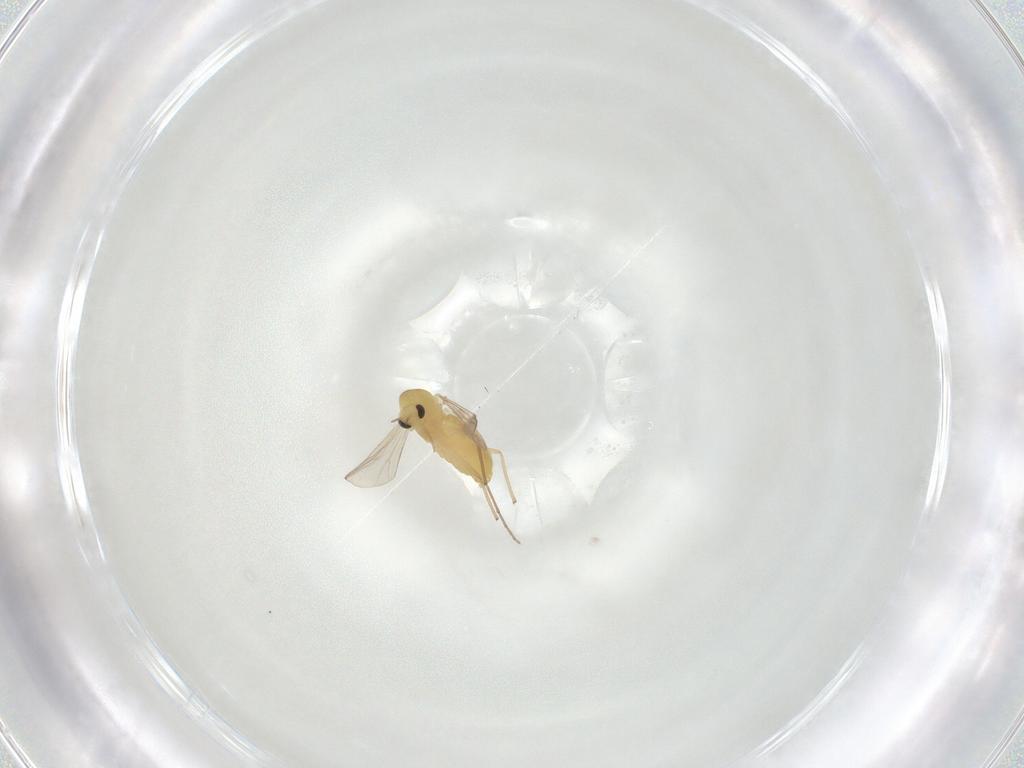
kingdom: Animalia
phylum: Arthropoda
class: Insecta
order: Diptera
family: Chironomidae
